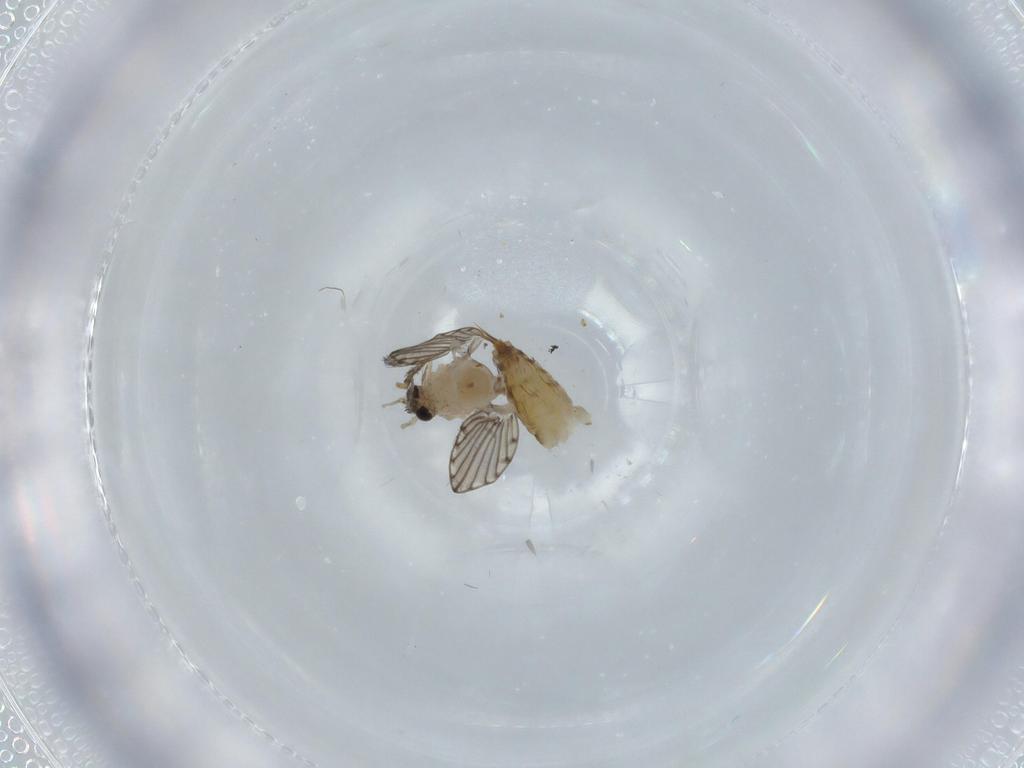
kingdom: Animalia
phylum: Arthropoda
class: Insecta
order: Diptera
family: Psychodidae
